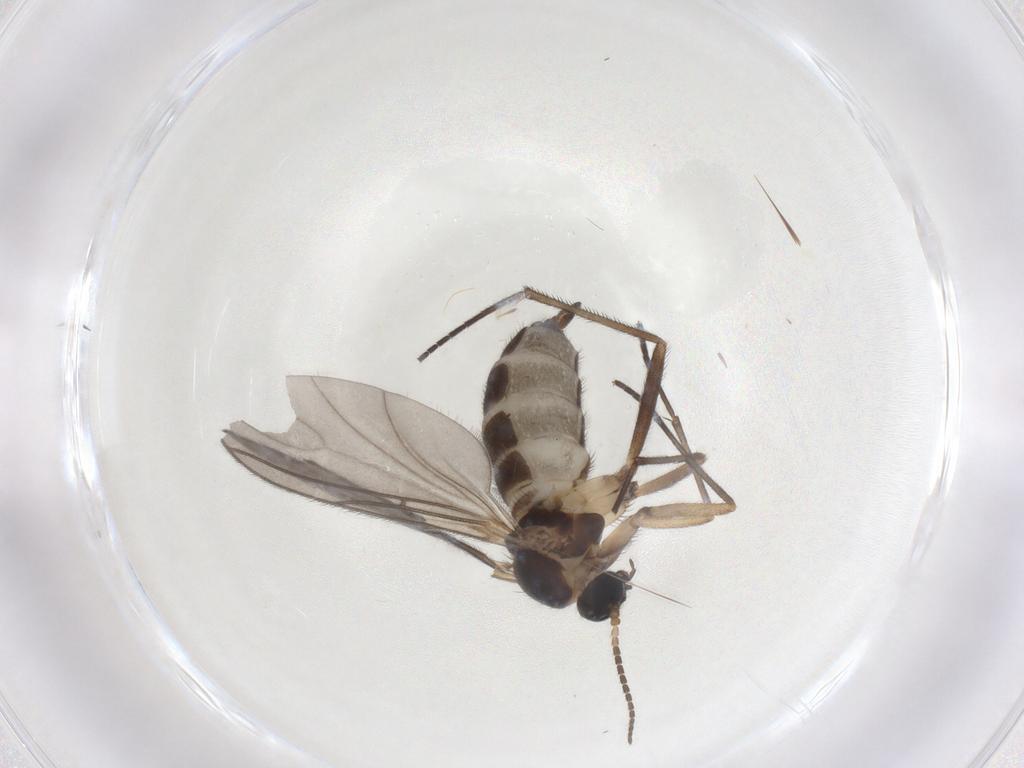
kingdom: Animalia
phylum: Arthropoda
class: Insecta
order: Diptera
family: Sciaridae
